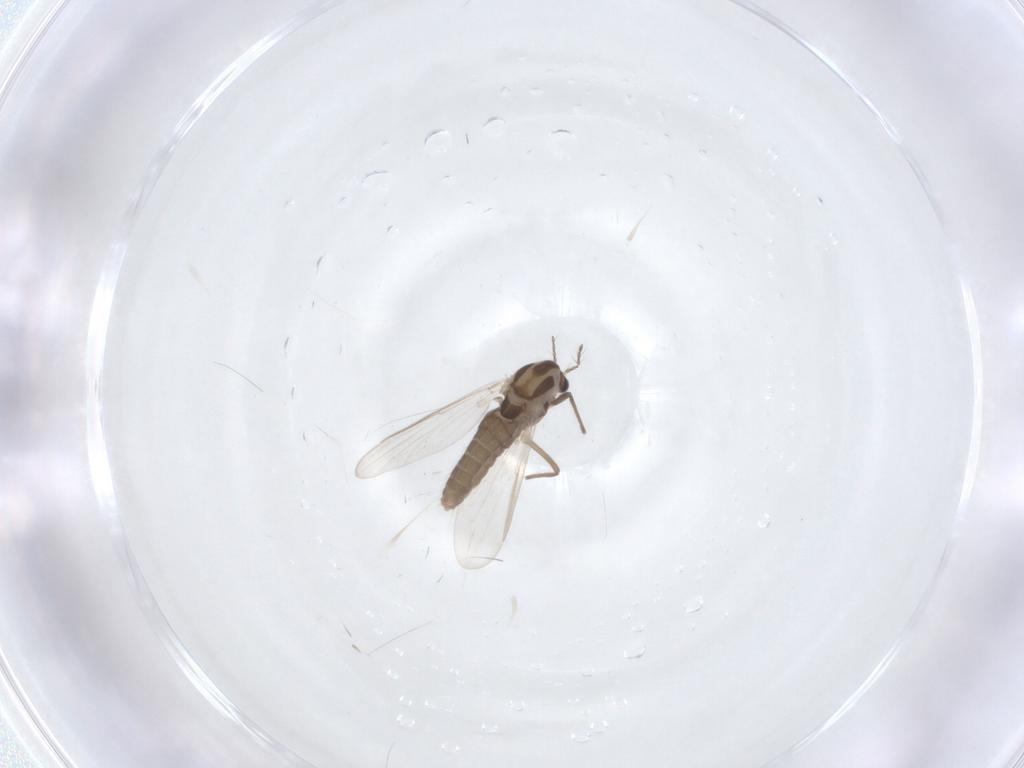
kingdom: Animalia
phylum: Arthropoda
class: Insecta
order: Diptera
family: Chironomidae
